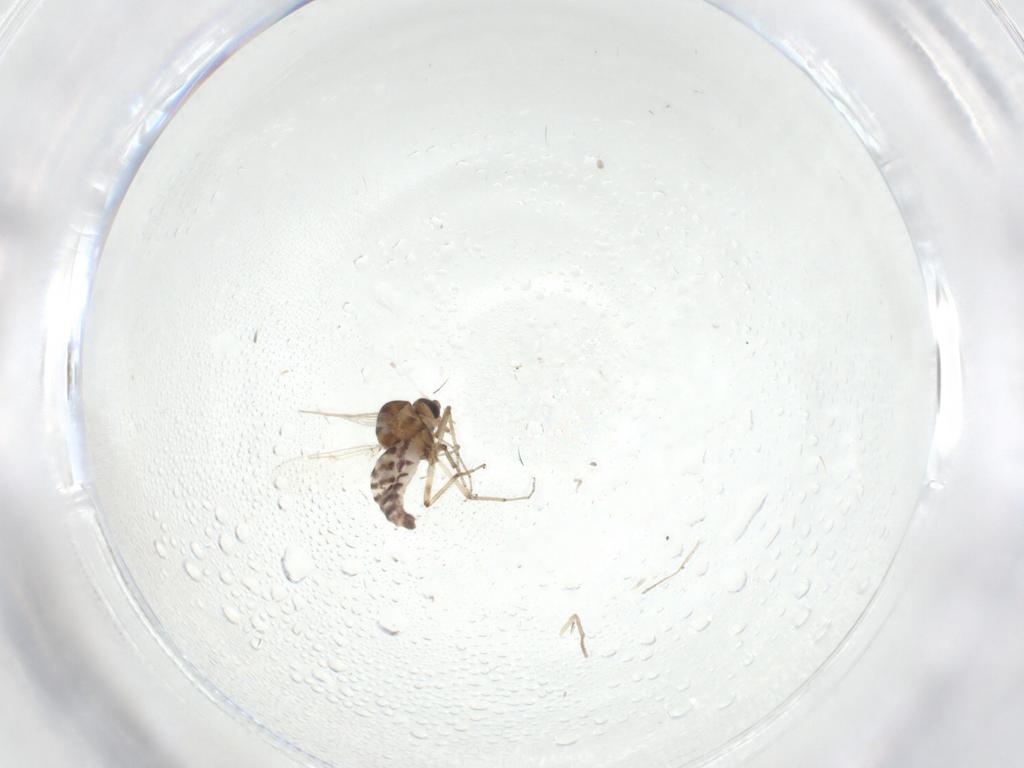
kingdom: Animalia
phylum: Arthropoda
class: Insecta
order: Diptera
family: Ceratopogonidae
